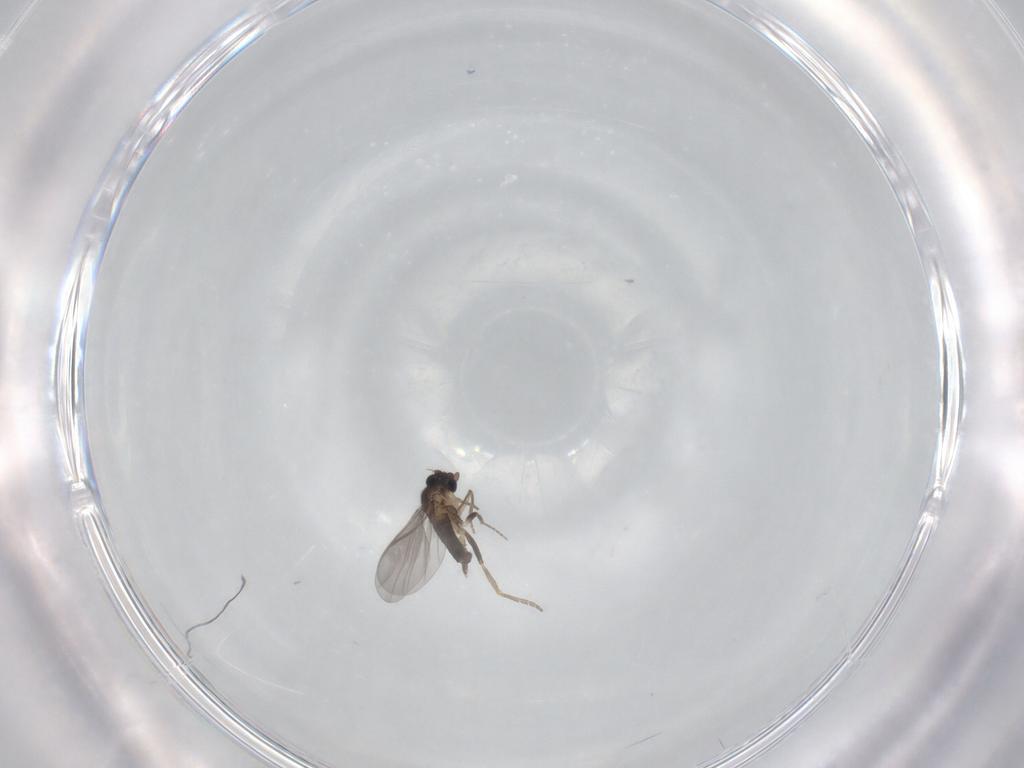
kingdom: Animalia
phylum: Arthropoda
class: Insecta
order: Diptera
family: Cecidomyiidae
